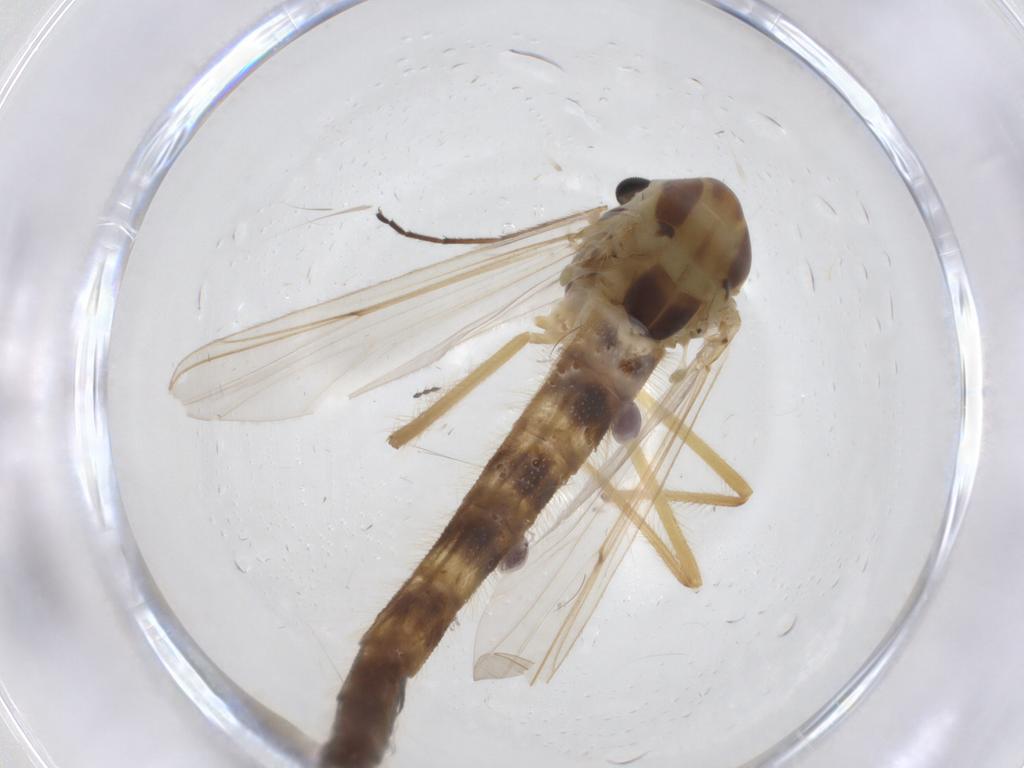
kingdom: Animalia
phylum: Arthropoda
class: Insecta
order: Diptera
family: Chironomidae
